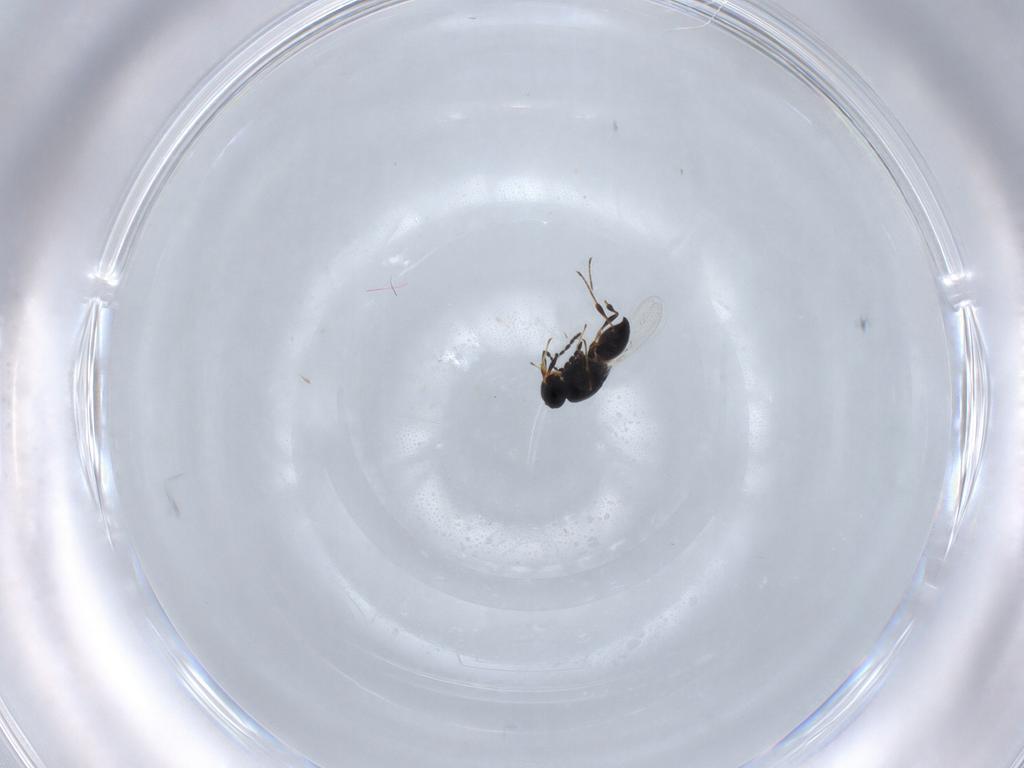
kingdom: Animalia
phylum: Arthropoda
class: Insecta
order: Hymenoptera
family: Platygastridae
